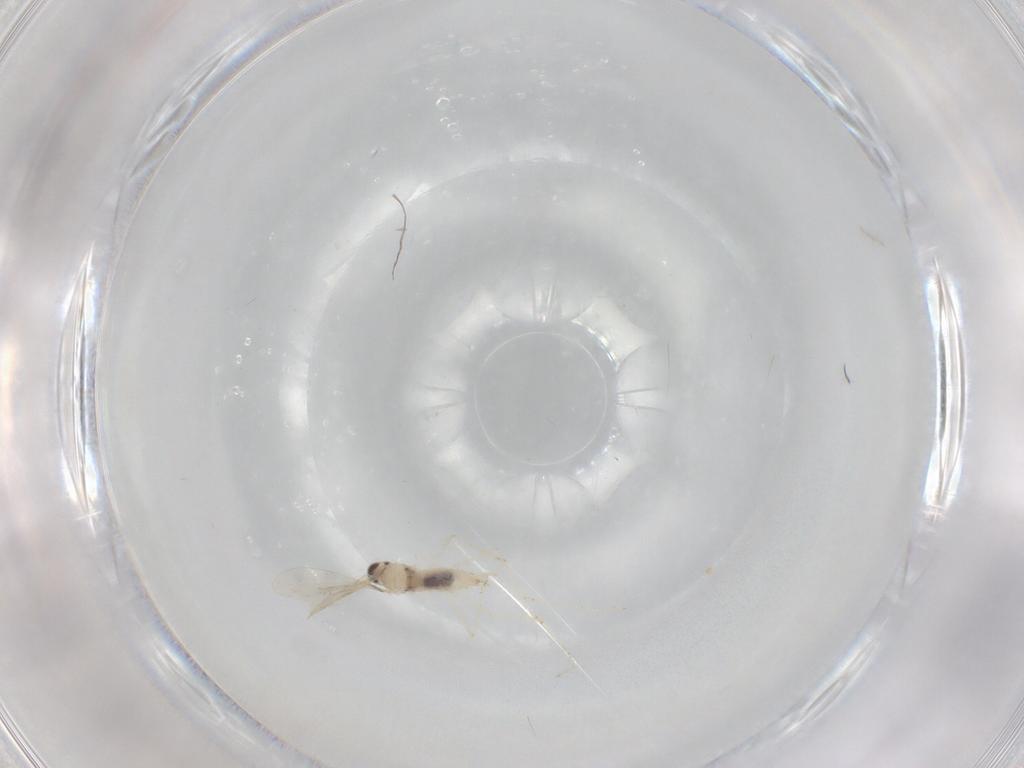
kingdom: Animalia
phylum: Arthropoda
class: Insecta
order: Diptera
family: Cecidomyiidae
